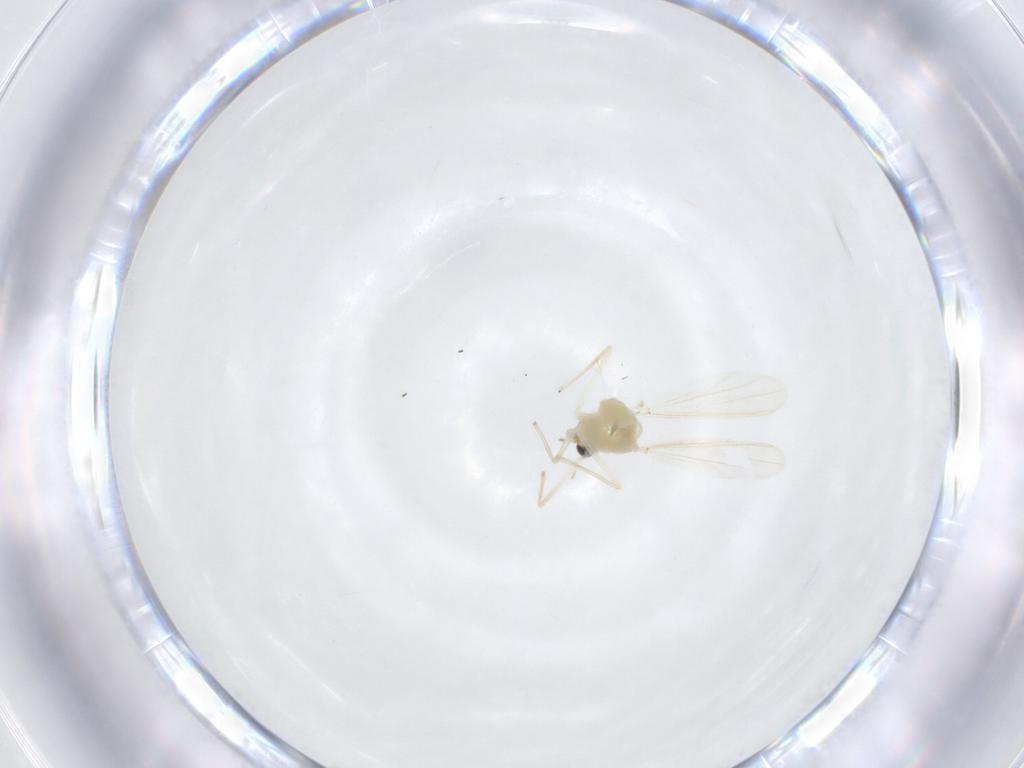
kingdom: Animalia
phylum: Arthropoda
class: Insecta
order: Diptera
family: Chironomidae
